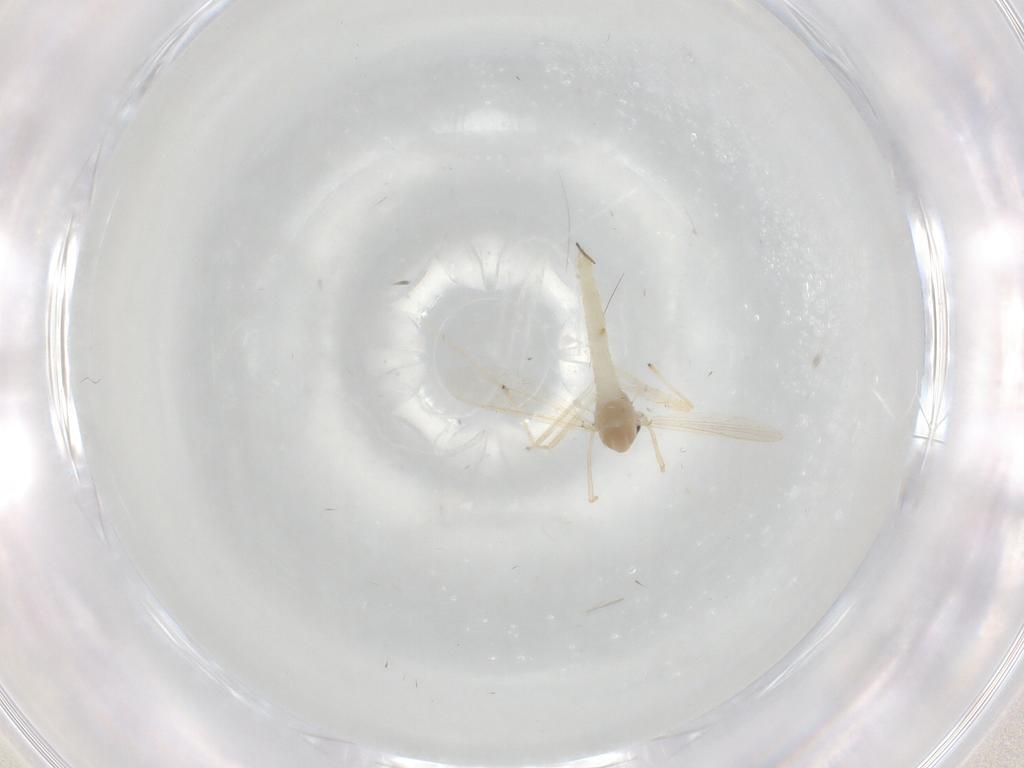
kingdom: Animalia
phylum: Arthropoda
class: Insecta
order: Diptera
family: Chironomidae
